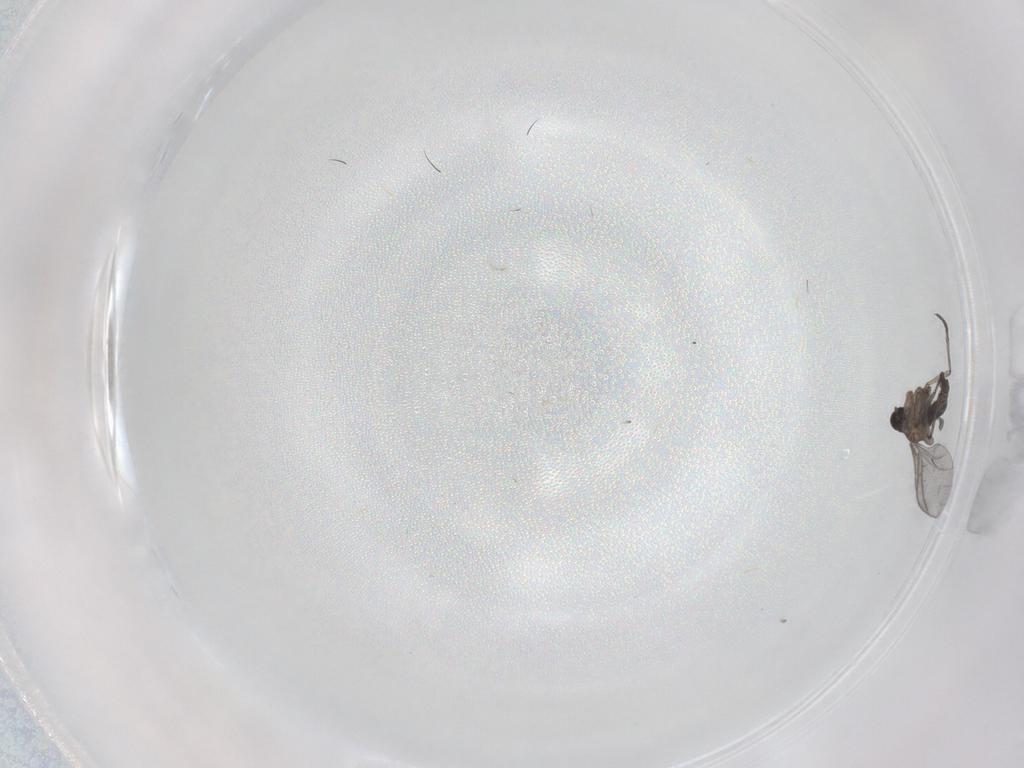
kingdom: Animalia
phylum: Arthropoda
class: Insecta
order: Diptera
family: Sciaridae
